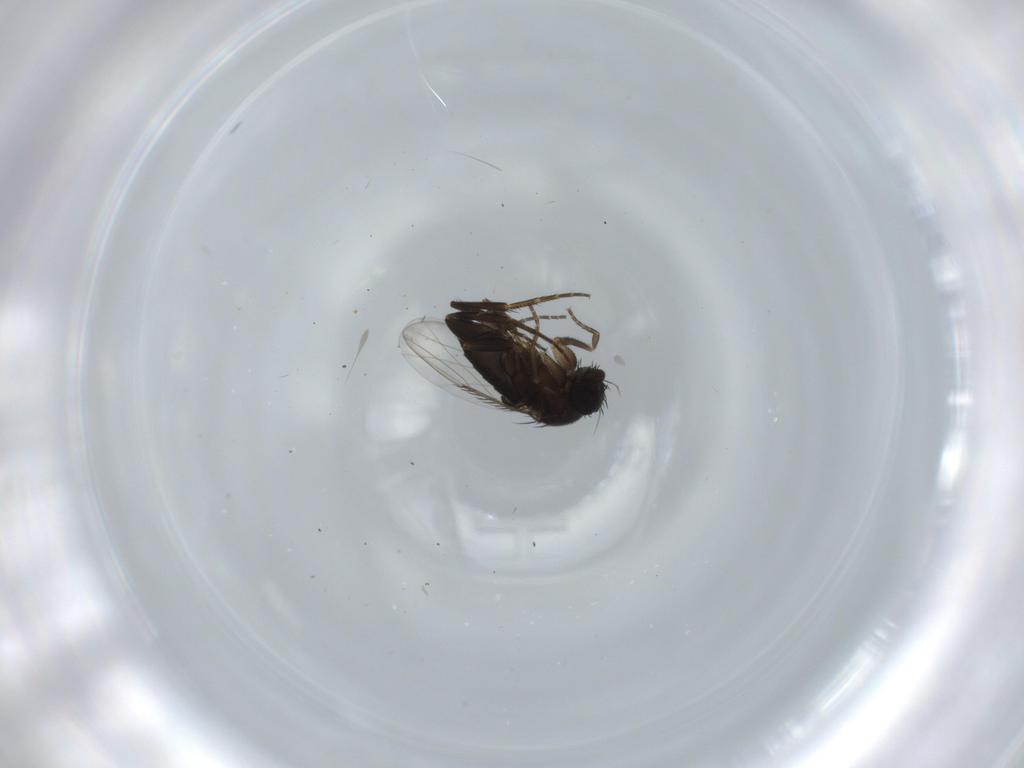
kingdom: Animalia
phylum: Arthropoda
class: Insecta
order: Diptera
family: Phoridae
